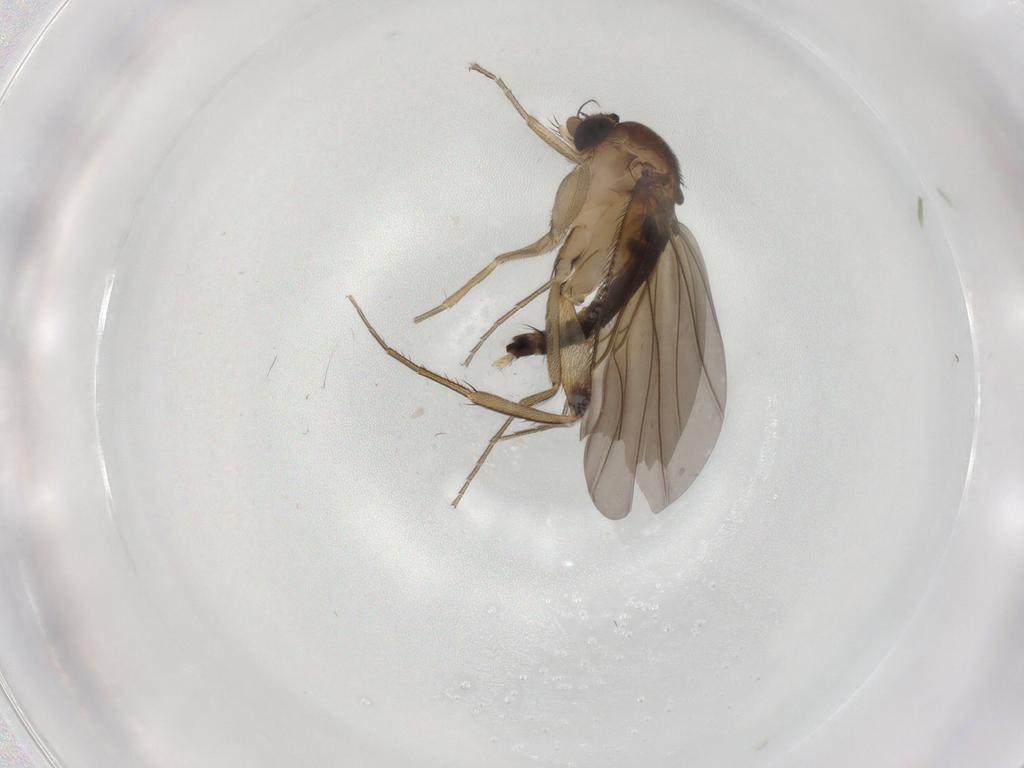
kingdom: Animalia
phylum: Arthropoda
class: Insecta
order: Diptera
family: Phoridae
